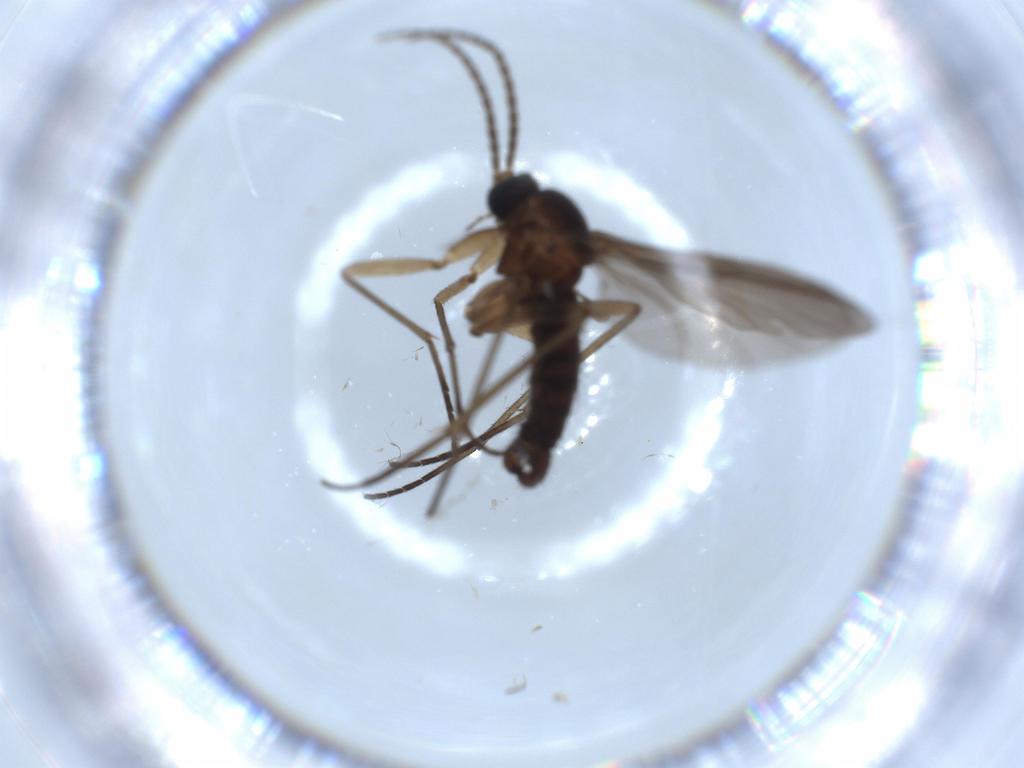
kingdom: Animalia
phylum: Arthropoda
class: Insecta
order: Diptera
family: Sciaridae
